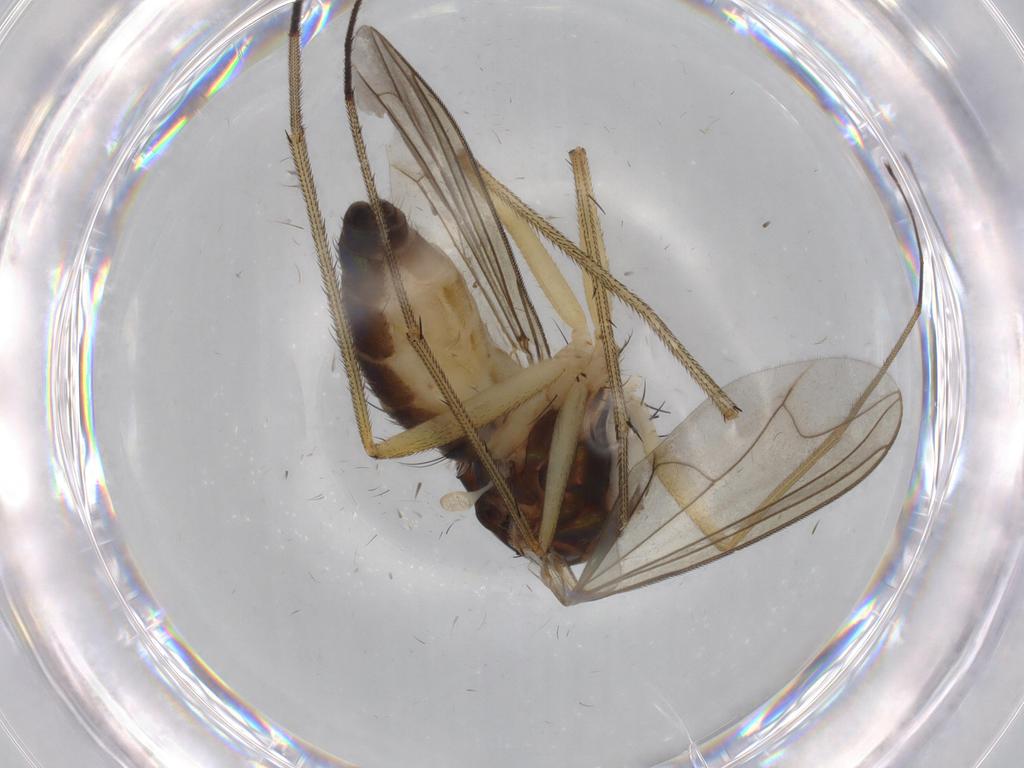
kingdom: Animalia
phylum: Arthropoda
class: Insecta
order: Diptera
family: Dolichopodidae
